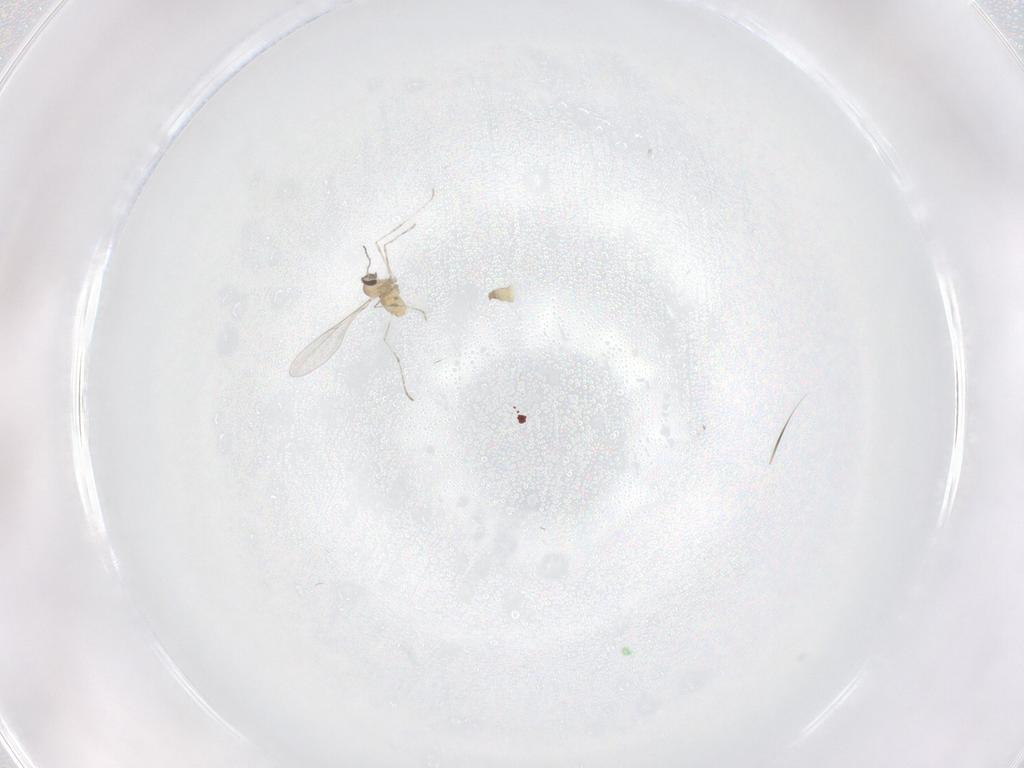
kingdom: Animalia
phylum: Arthropoda
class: Insecta
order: Diptera
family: Cecidomyiidae
